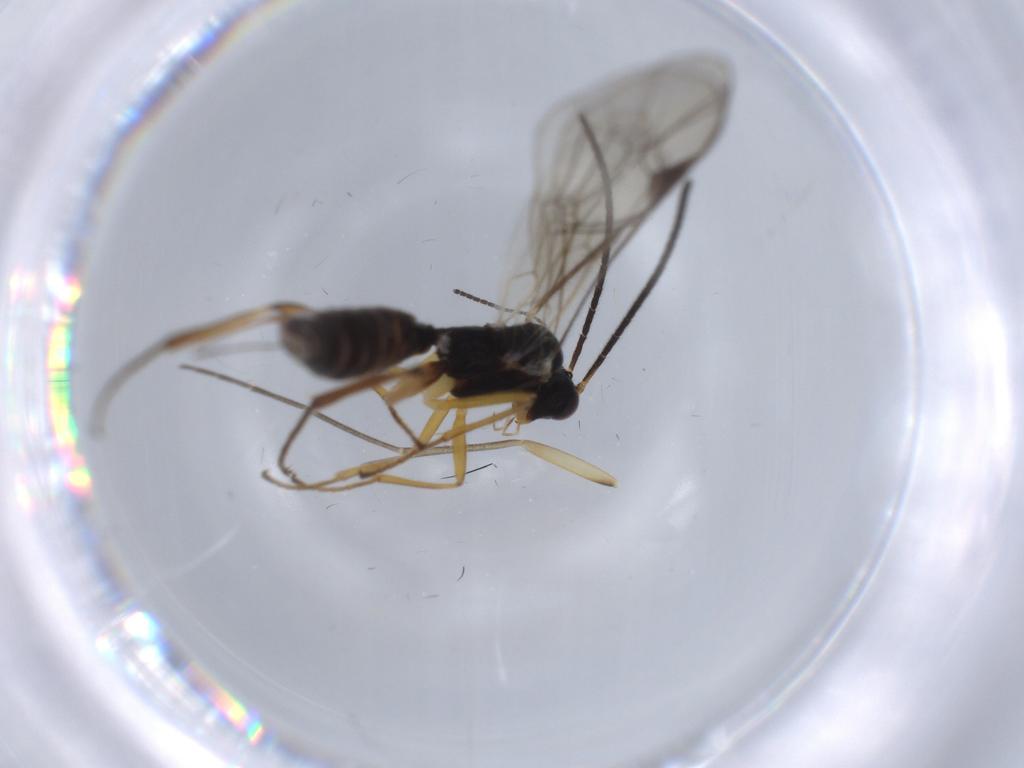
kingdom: Animalia
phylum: Arthropoda
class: Insecta
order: Hymenoptera
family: Ichneumonidae
